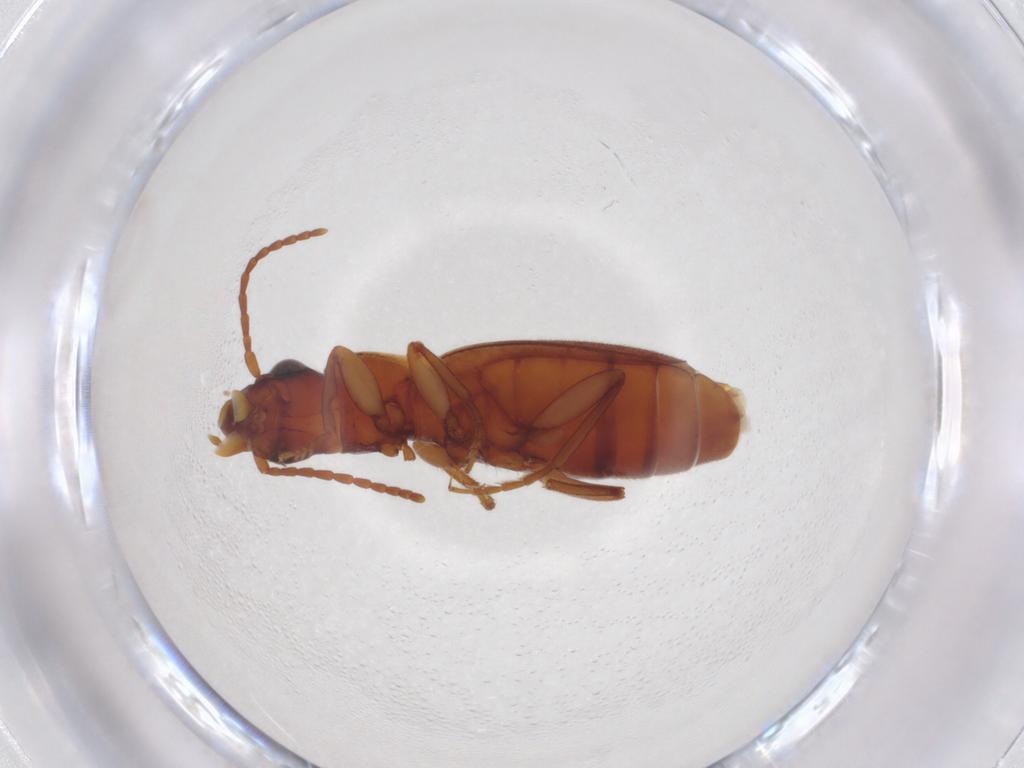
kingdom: Animalia
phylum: Arthropoda
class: Insecta
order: Coleoptera
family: Carabidae
